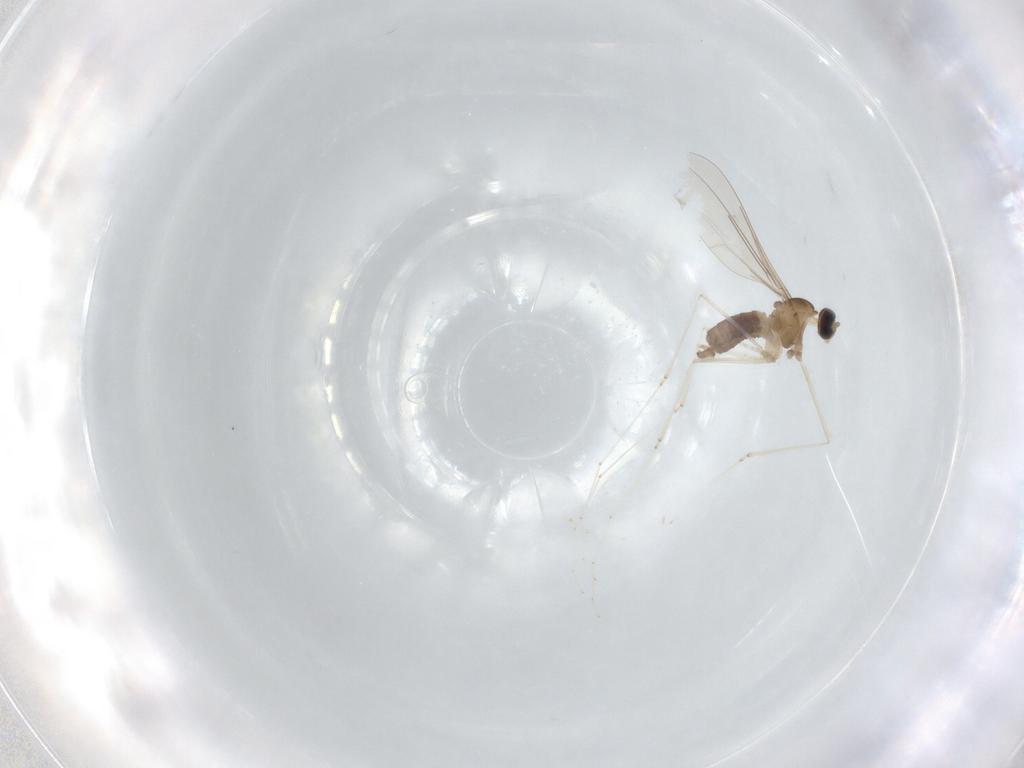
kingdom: Animalia
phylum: Arthropoda
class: Insecta
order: Diptera
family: Cecidomyiidae
